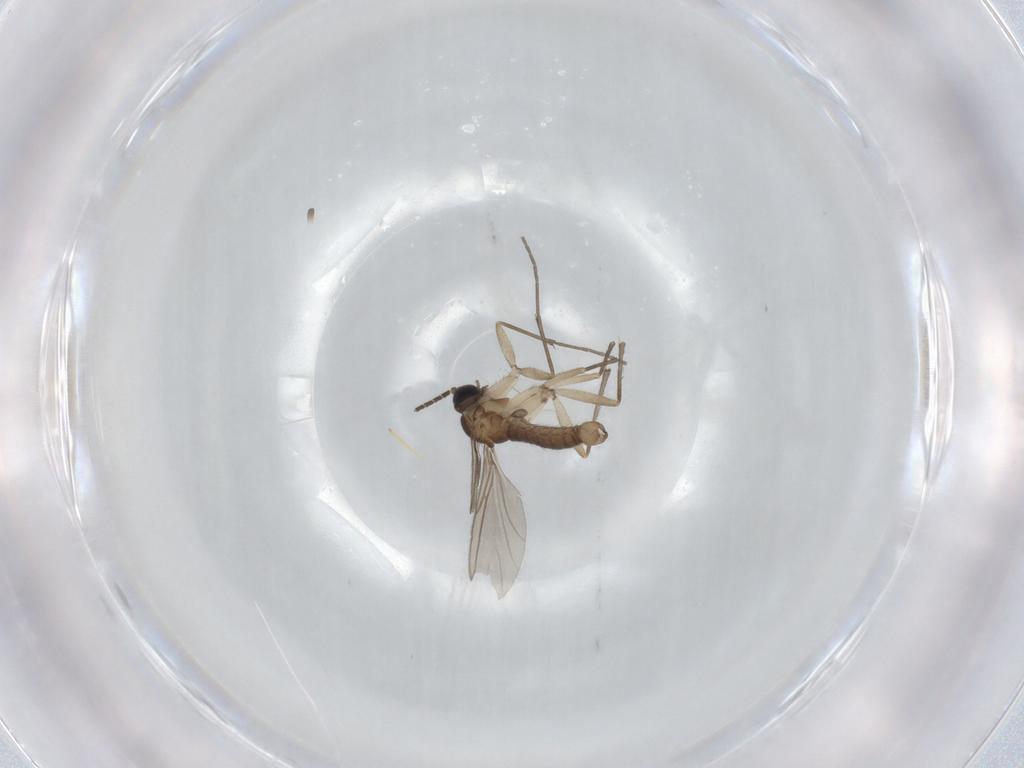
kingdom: Animalia
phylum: Arthropoda
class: Insecta
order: Diptera
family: Sciaridae
